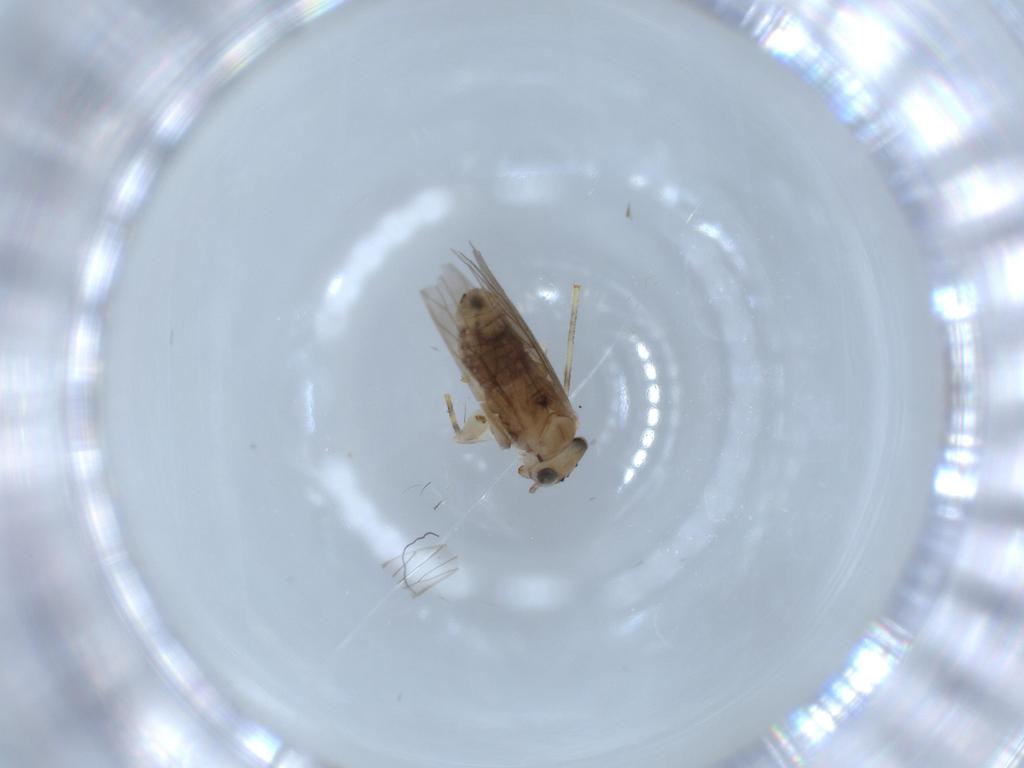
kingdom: Animalia
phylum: Arthropoda
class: Insecta
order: Psocodea
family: Lepidopsocidae
